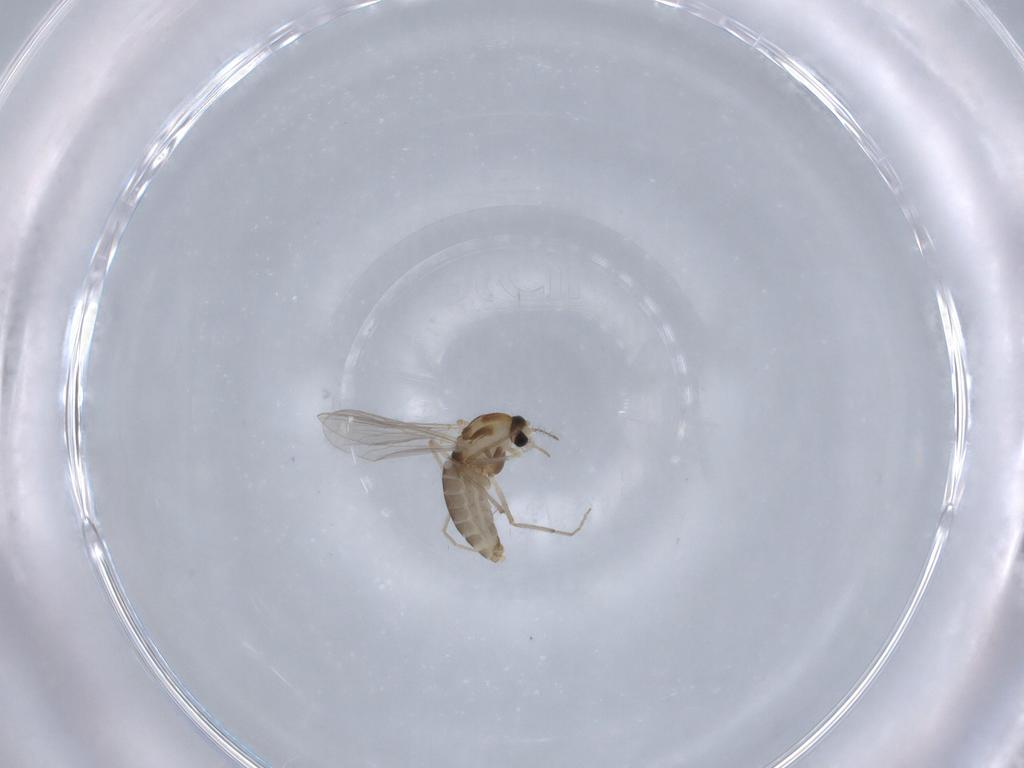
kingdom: Animalia
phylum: Arthropoda
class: Insecta
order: Diptera
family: Chironomidae
